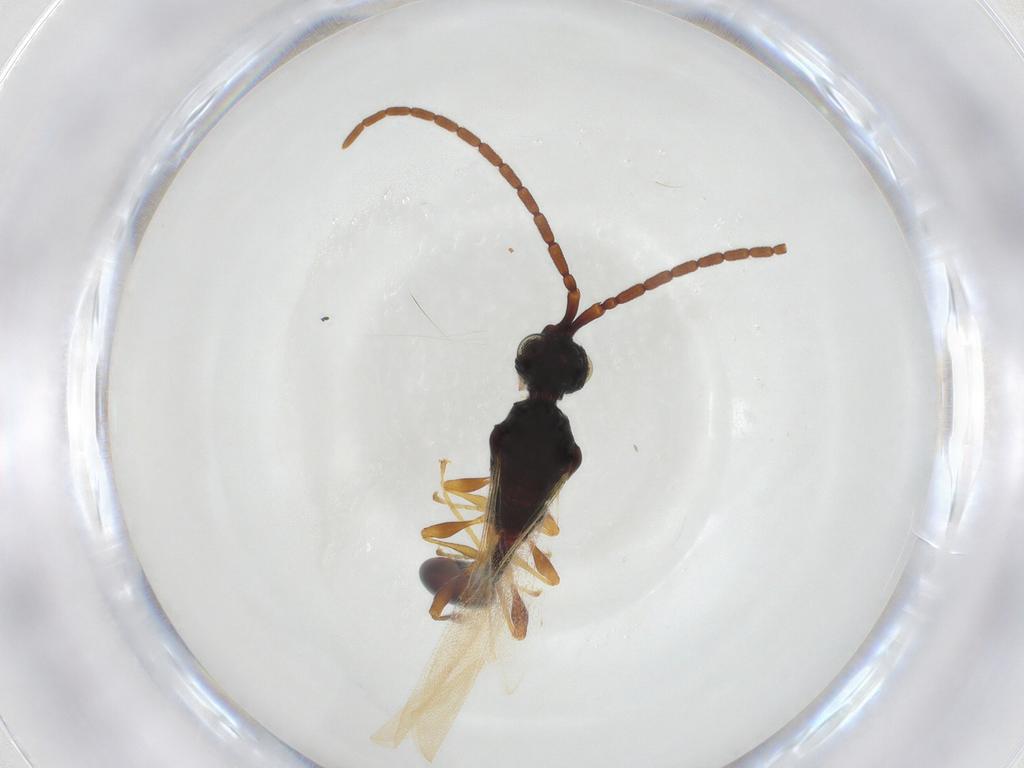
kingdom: Animalia
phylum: Arthropoda
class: Insecta
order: Hymenoptera
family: Diapriidae
